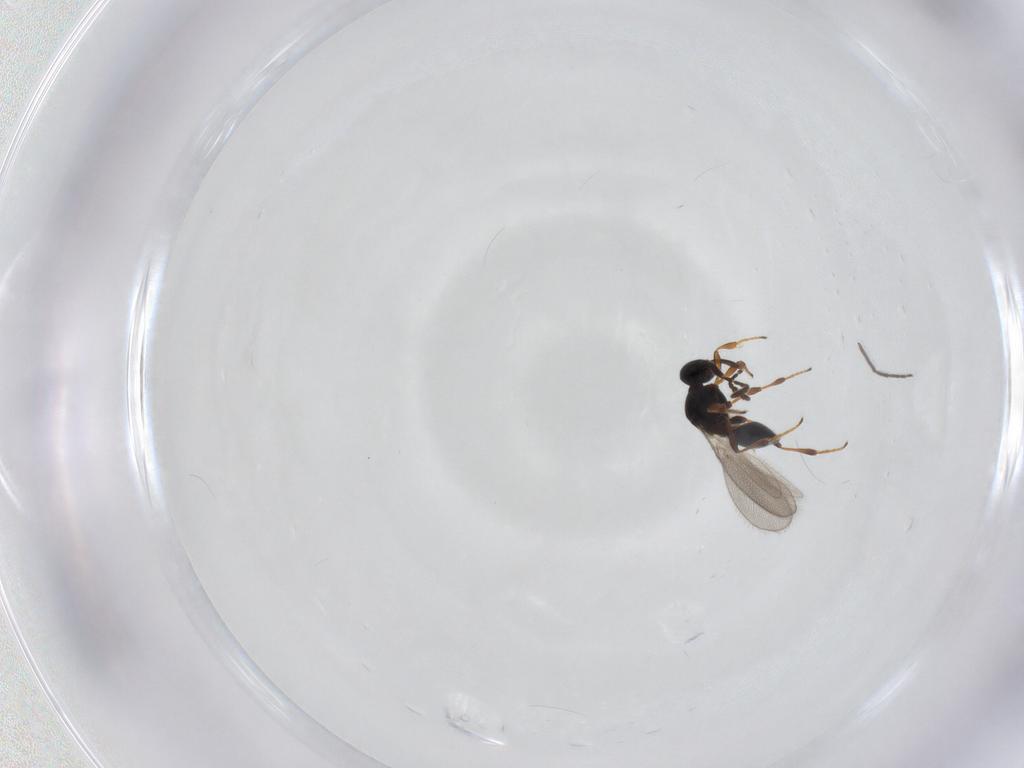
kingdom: Animalia
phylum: Arthropoda
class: Insecta
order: Hymenoptera
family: Platygastridae
